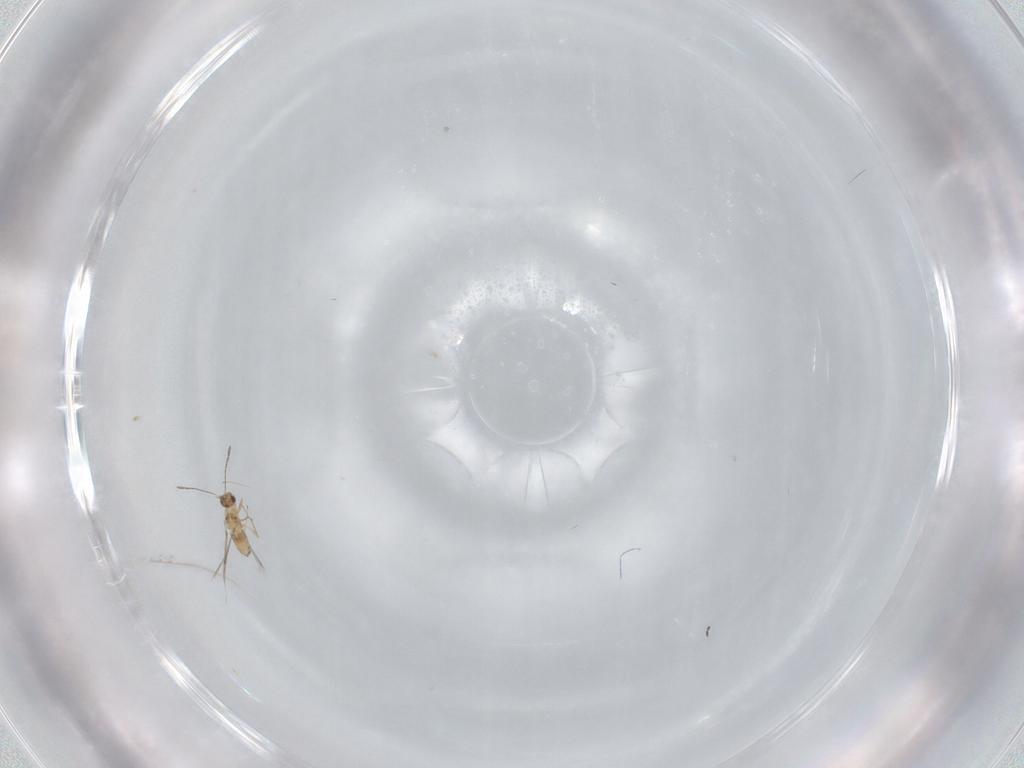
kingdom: Animalia
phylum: Arthropoda
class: Insecta
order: Hymenoptera
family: Mymaridae
